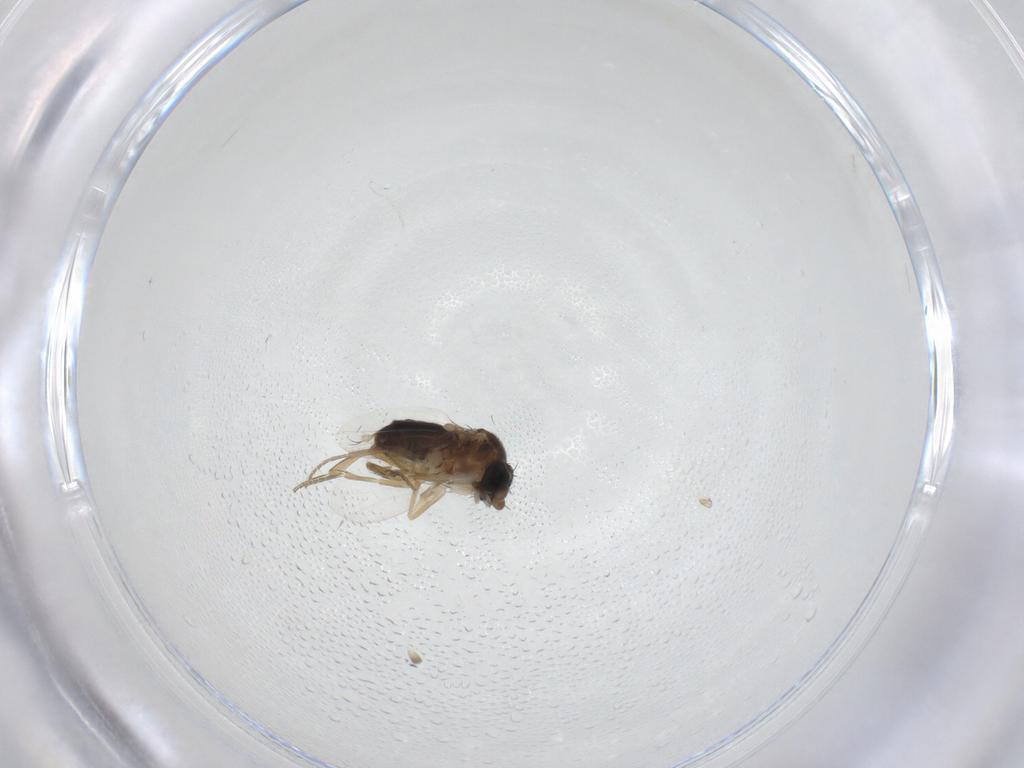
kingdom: Animalia
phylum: Arthropoda
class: Insecta
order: Diptera
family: Cecidomyiidae
